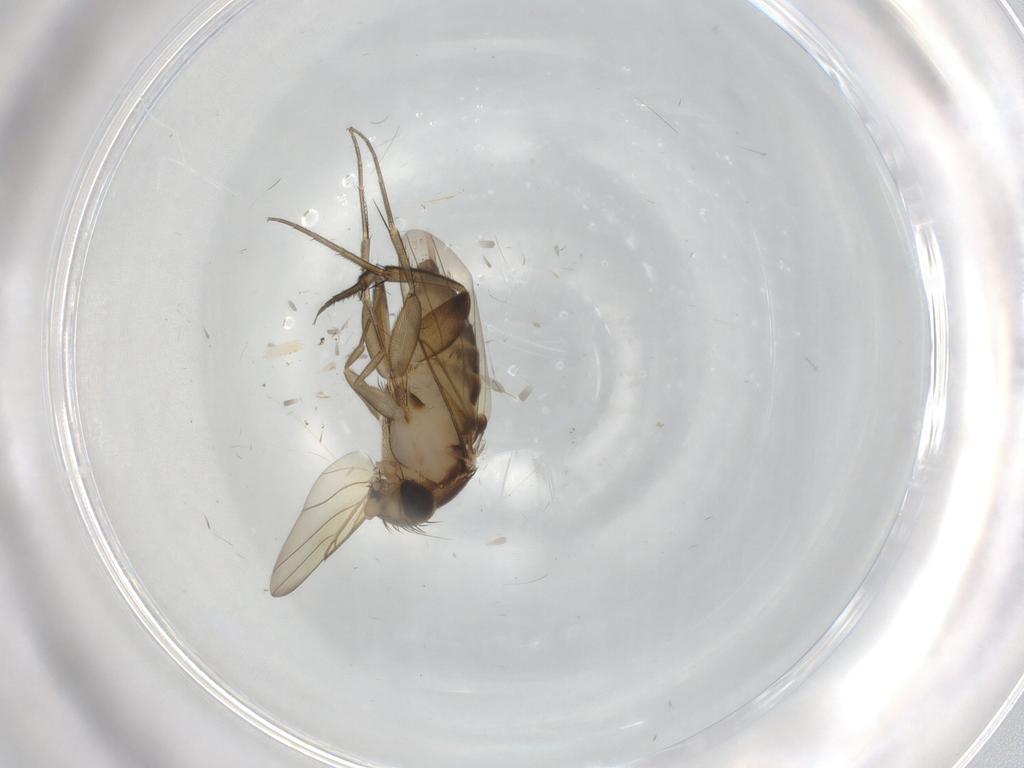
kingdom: Animalia
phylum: Arthropoda
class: Insecta
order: Diptera
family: Phoridae
